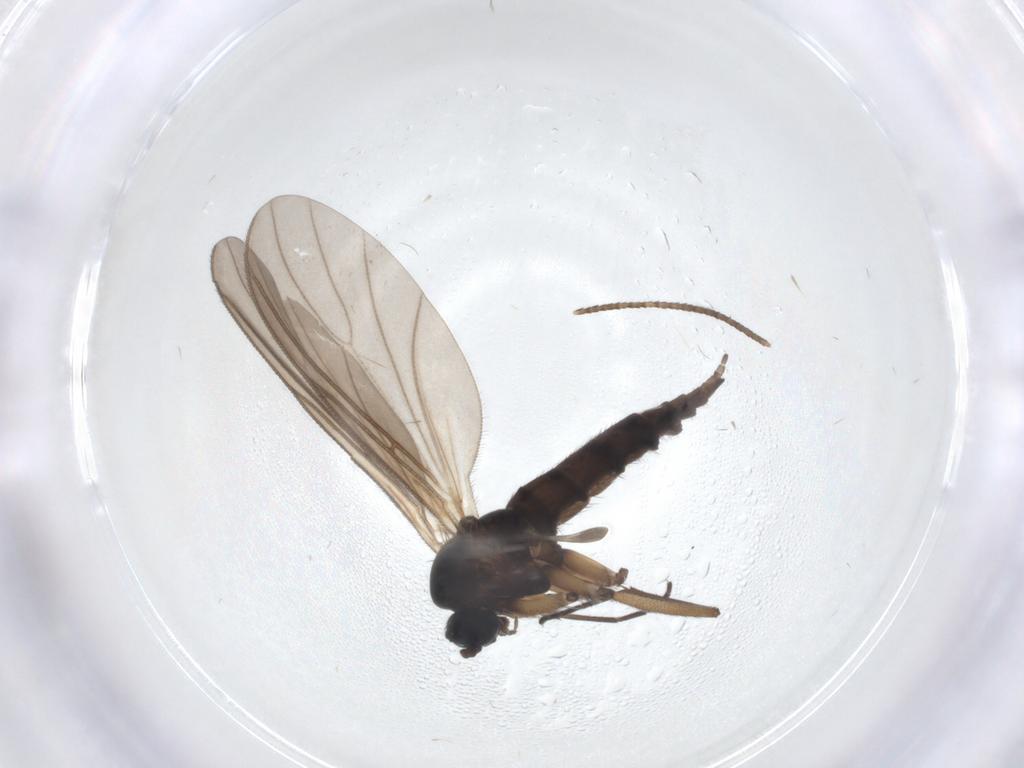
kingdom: Animalia
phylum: Arthropoda
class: Insecta
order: Diptera
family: Sciaridae
